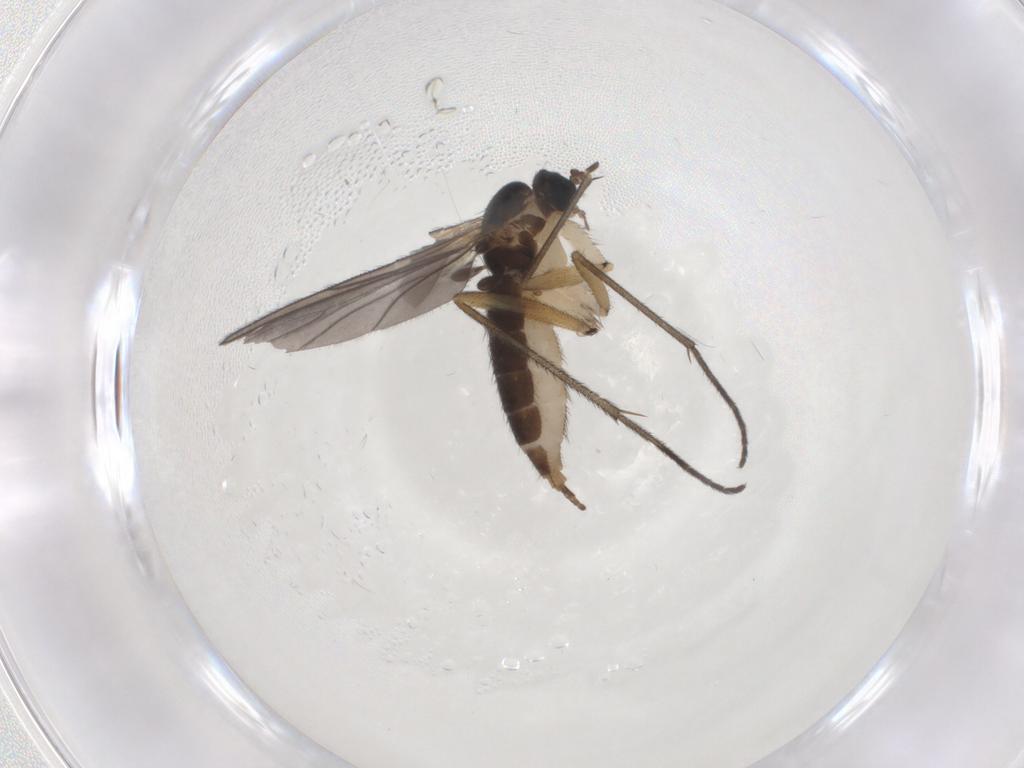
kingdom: Animalia
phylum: Arthropoda
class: Insecta
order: Diptera
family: Sciaridae
